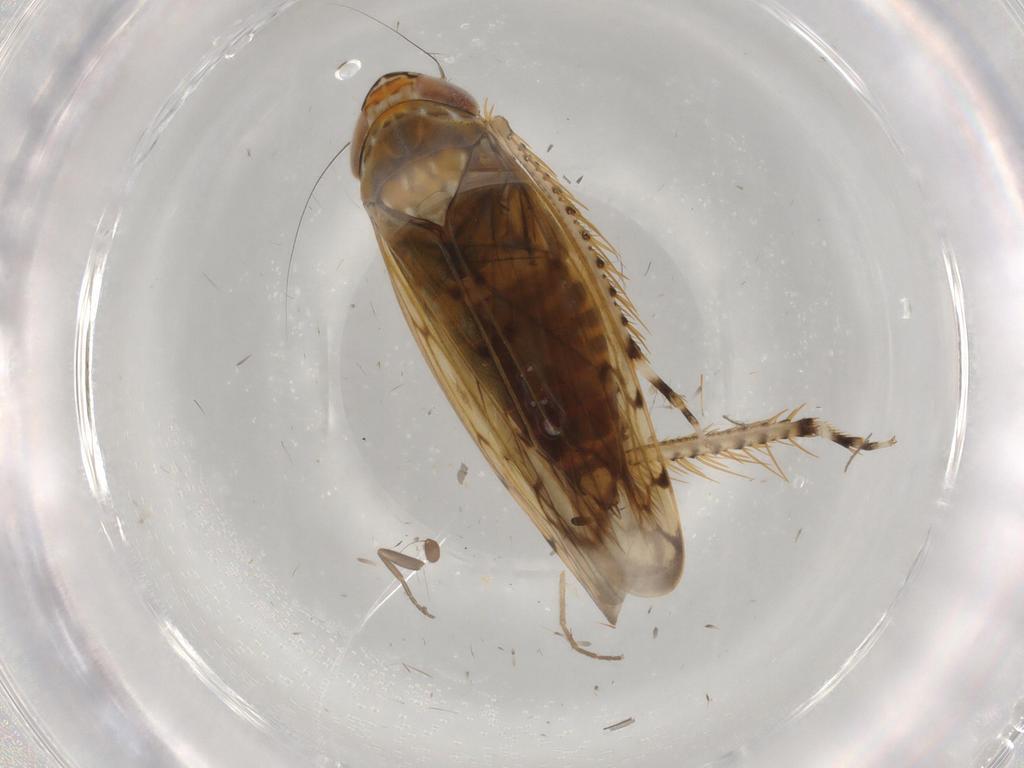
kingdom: Animalia
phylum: Arthropoda
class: Insecta
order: Hemiptera
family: Cicadellidae
